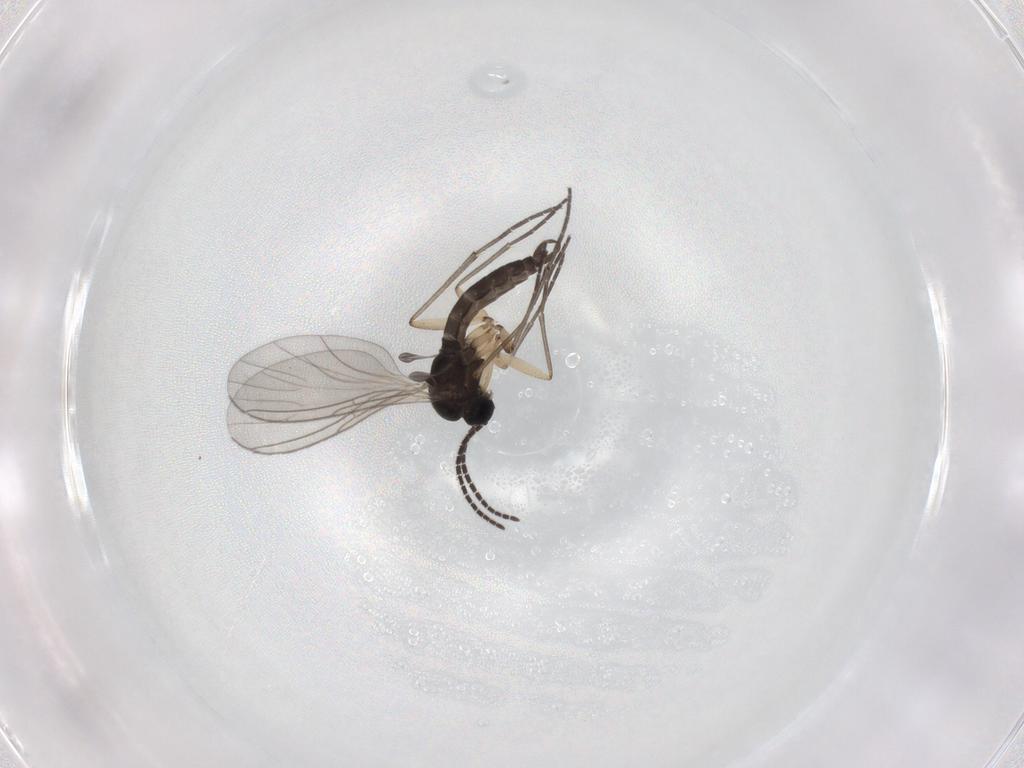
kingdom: Animalia
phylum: Arthropoda
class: Insecta
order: Diptera
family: Sciaridae
